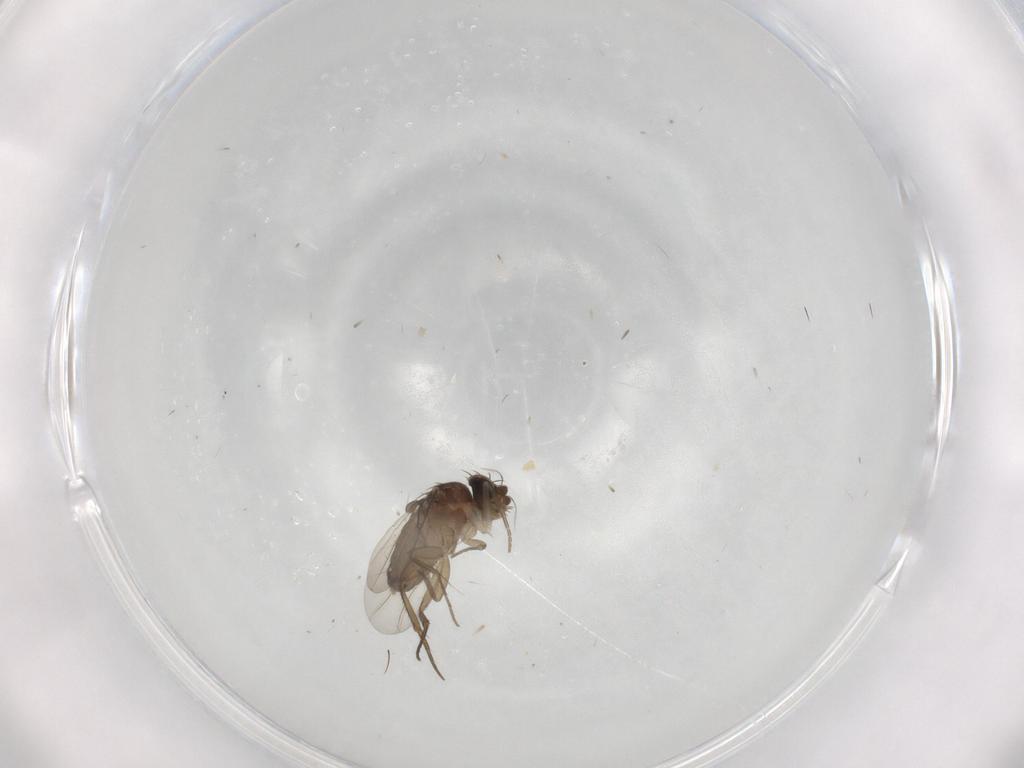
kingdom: Animalia
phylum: Arthropoda
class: Insecta
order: Diptera
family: Sciaridae
